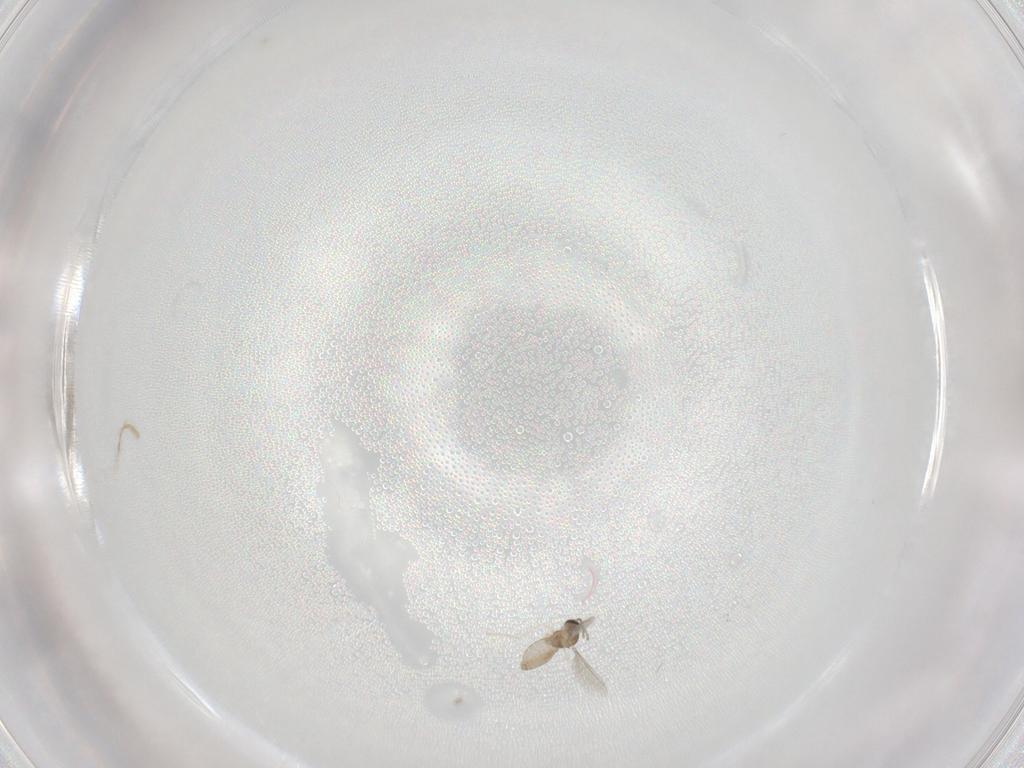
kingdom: Animalia
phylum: Arthropoda
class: Insecta
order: Diptera
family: Cecidomyiidae
